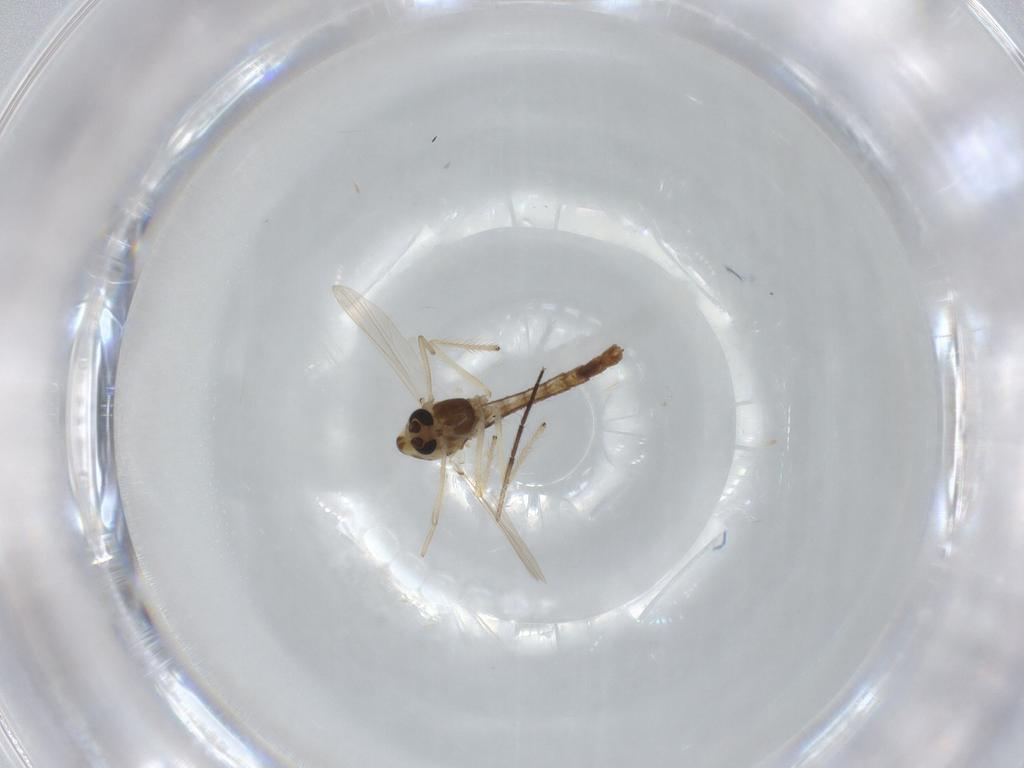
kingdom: Animalia
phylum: Arthropoda
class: Insecta
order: Diptera
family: Chironomidae
